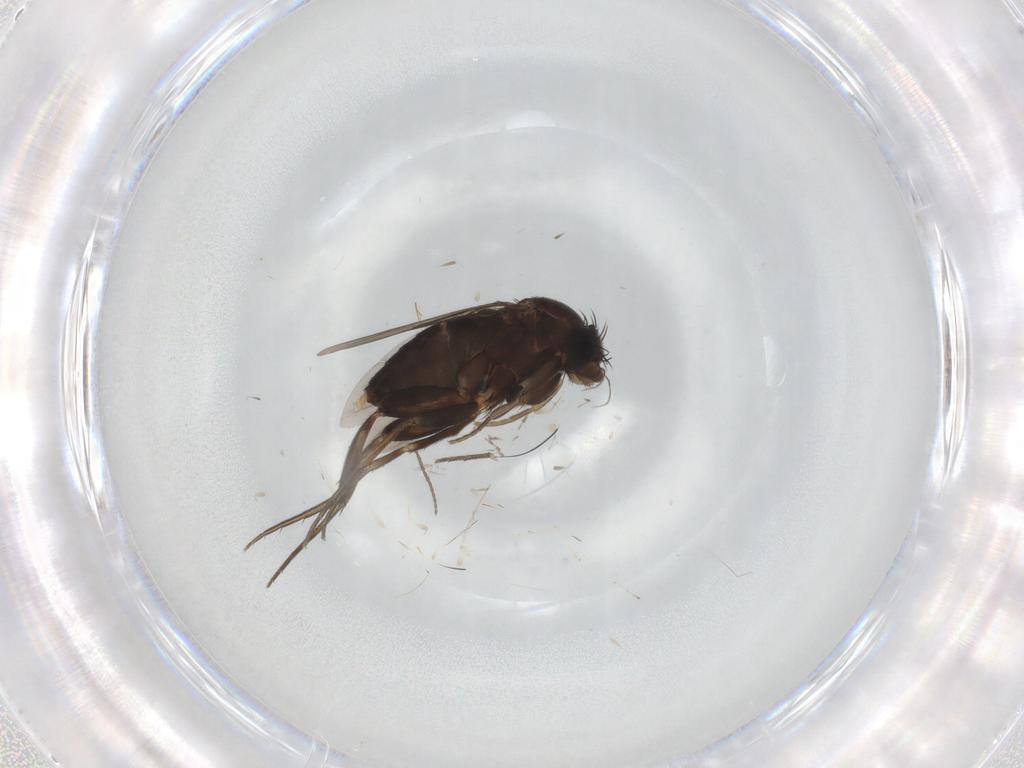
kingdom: Animalia
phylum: Arthropoda
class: Insecta
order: Diptera
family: Phoridae
